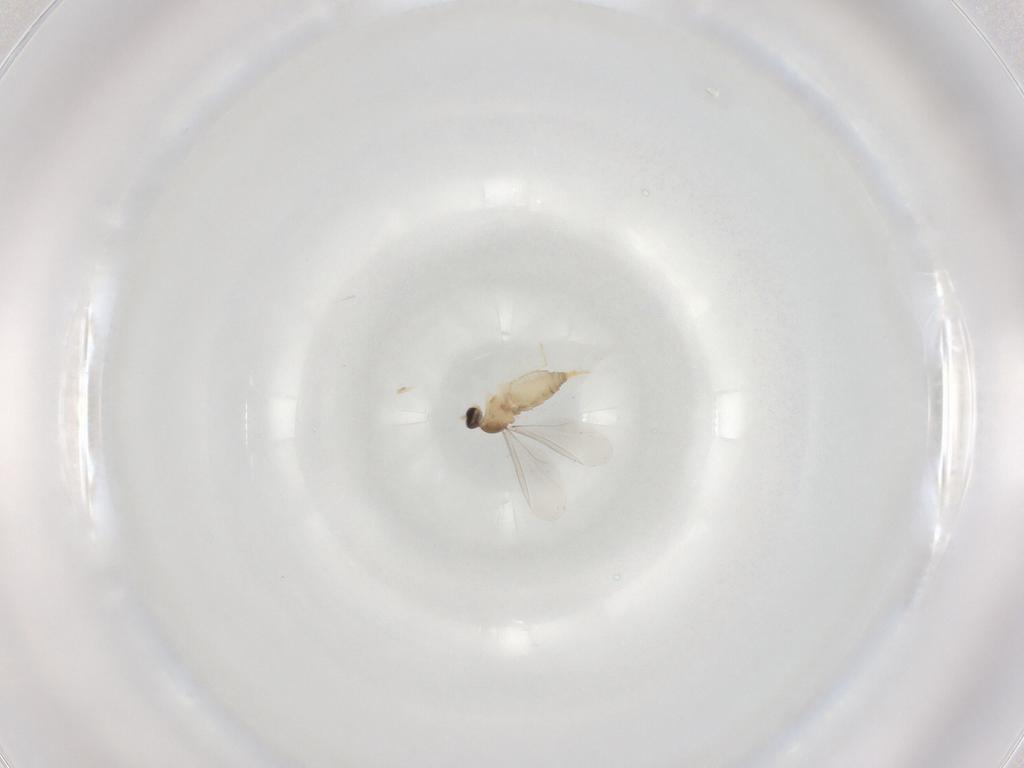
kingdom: Animalia
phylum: Arthropoda
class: Insecta
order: Diptera
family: Cecidomyiidae
